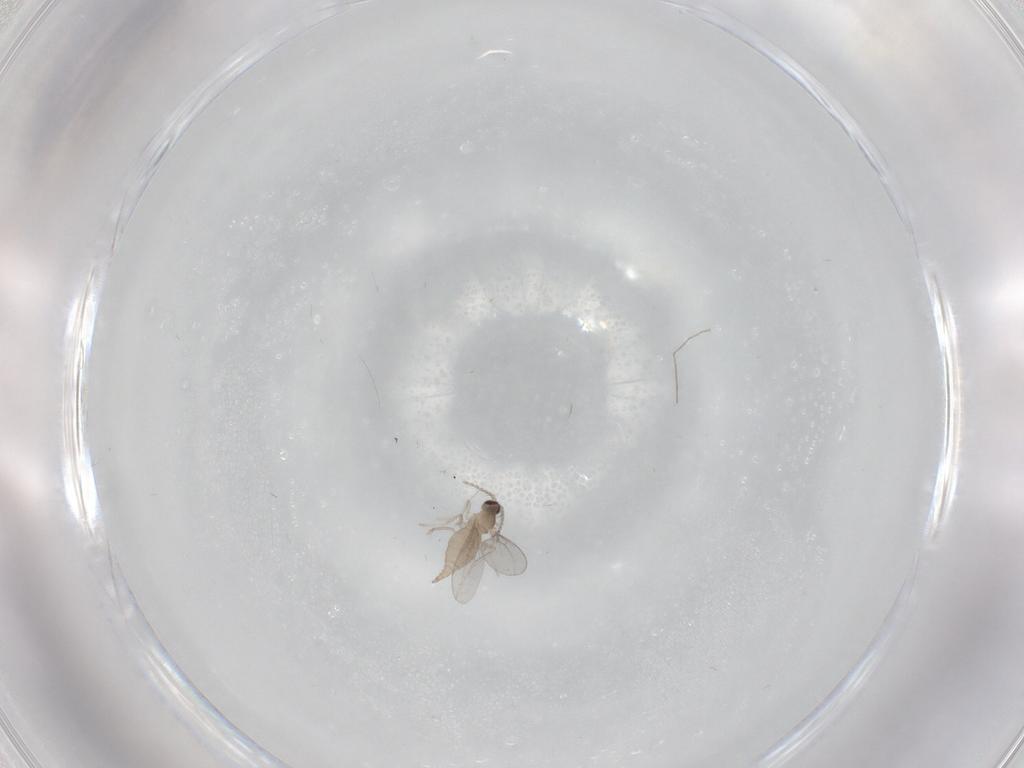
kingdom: Animalia
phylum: Arthropoda
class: Insecta
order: Diptera
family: Cecidomyiidae
